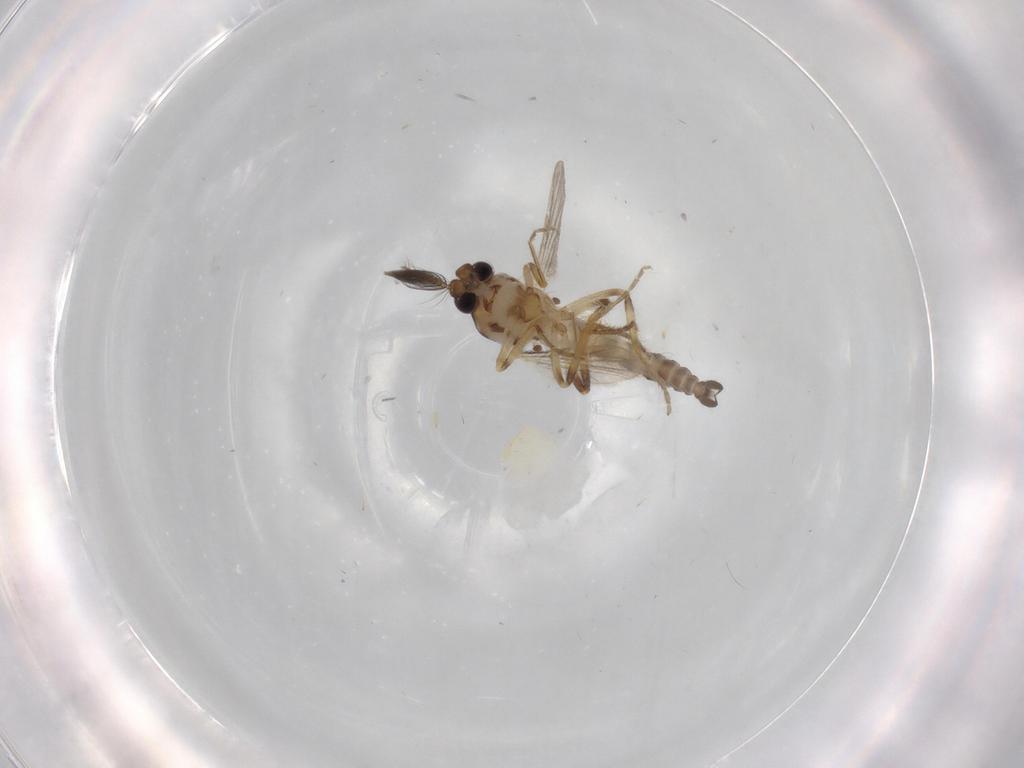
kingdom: Animalia
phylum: Arthropoda
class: Insecta
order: Diptera
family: Ceratopogonidae
